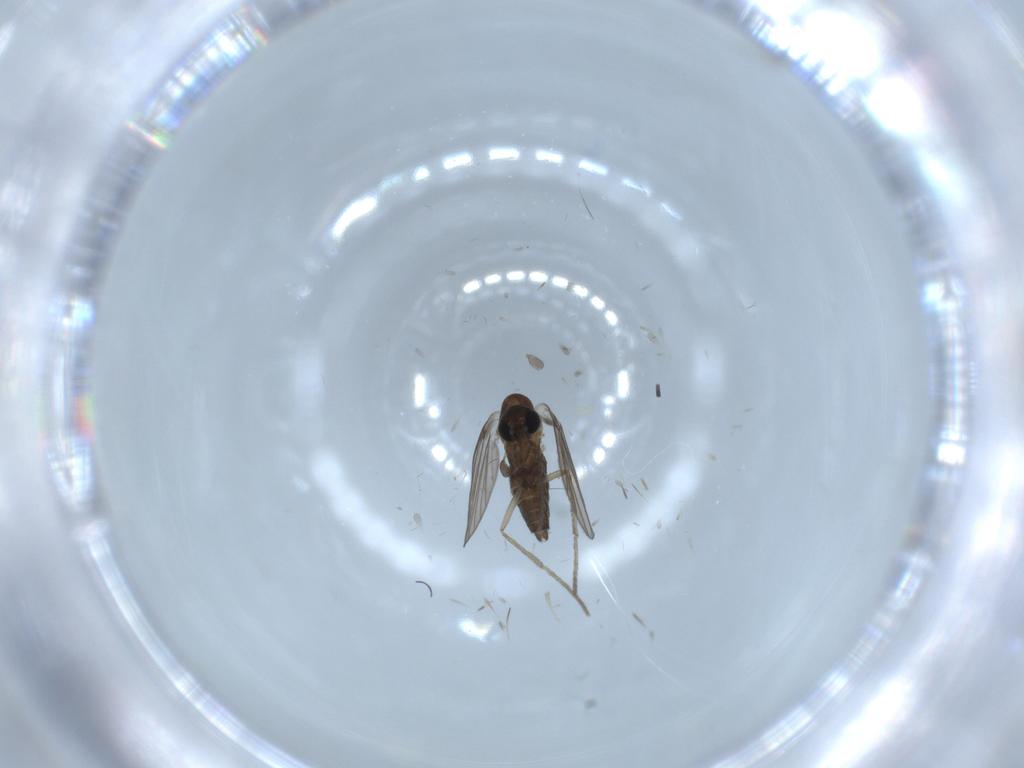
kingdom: Animalia
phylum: Arthropoda
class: Insecta
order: Diptera
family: Psychodidae
